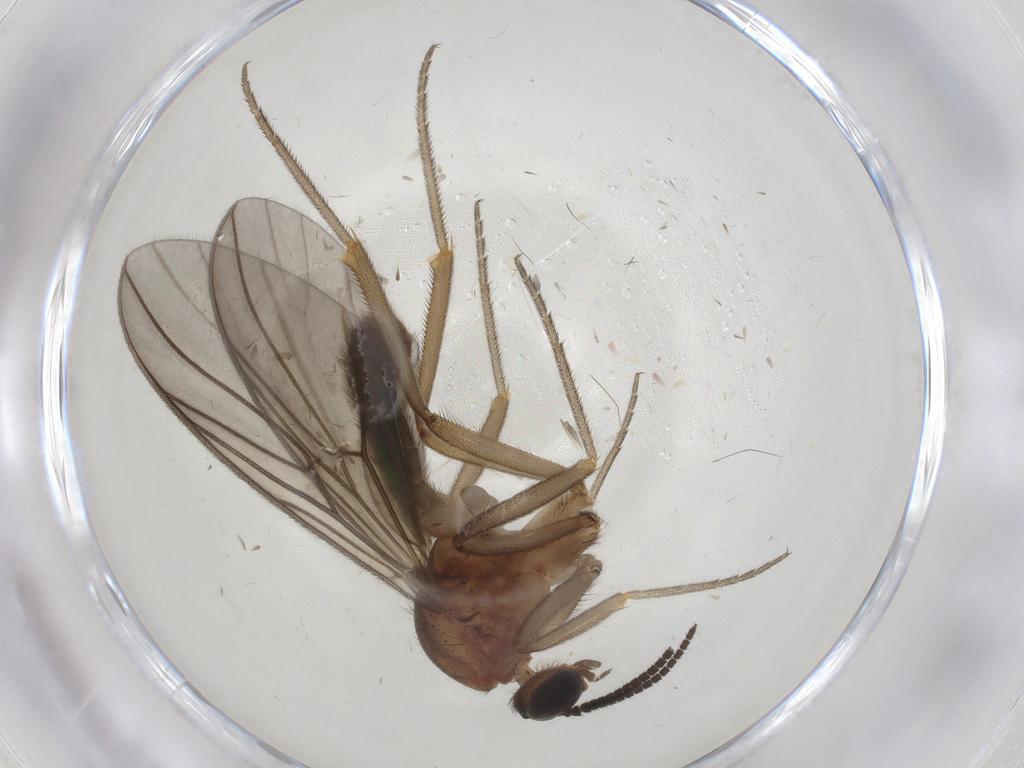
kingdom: Animalia
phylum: Arthropoda
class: Insecta
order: Diptera
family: Chironomidae
